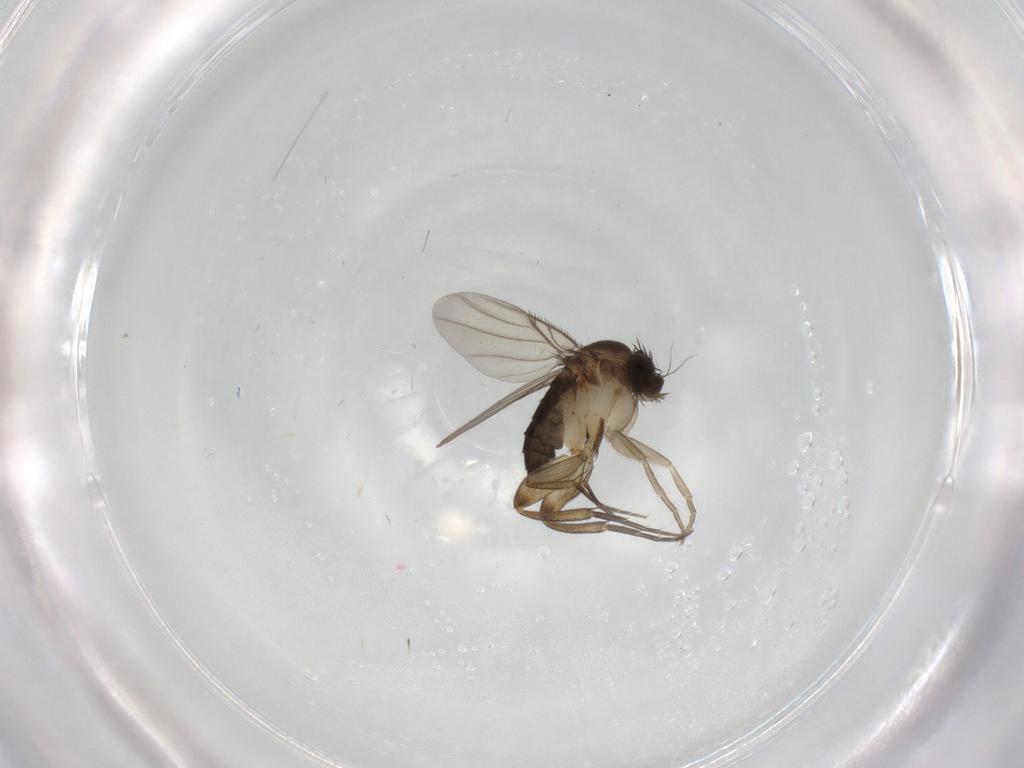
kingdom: Animalia
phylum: Arthropoda
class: Insecta
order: Diptera
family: Phoridae
